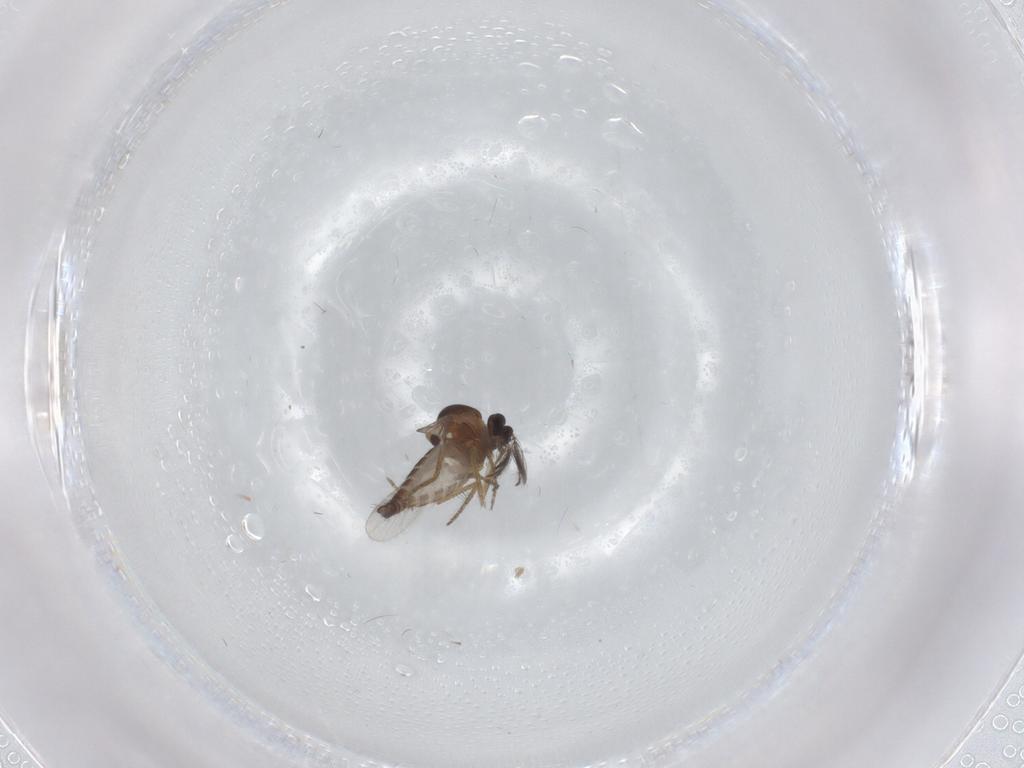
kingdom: Animalia
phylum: Arthropoda
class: Insecta
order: Diptera
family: Ceratopogonidae
